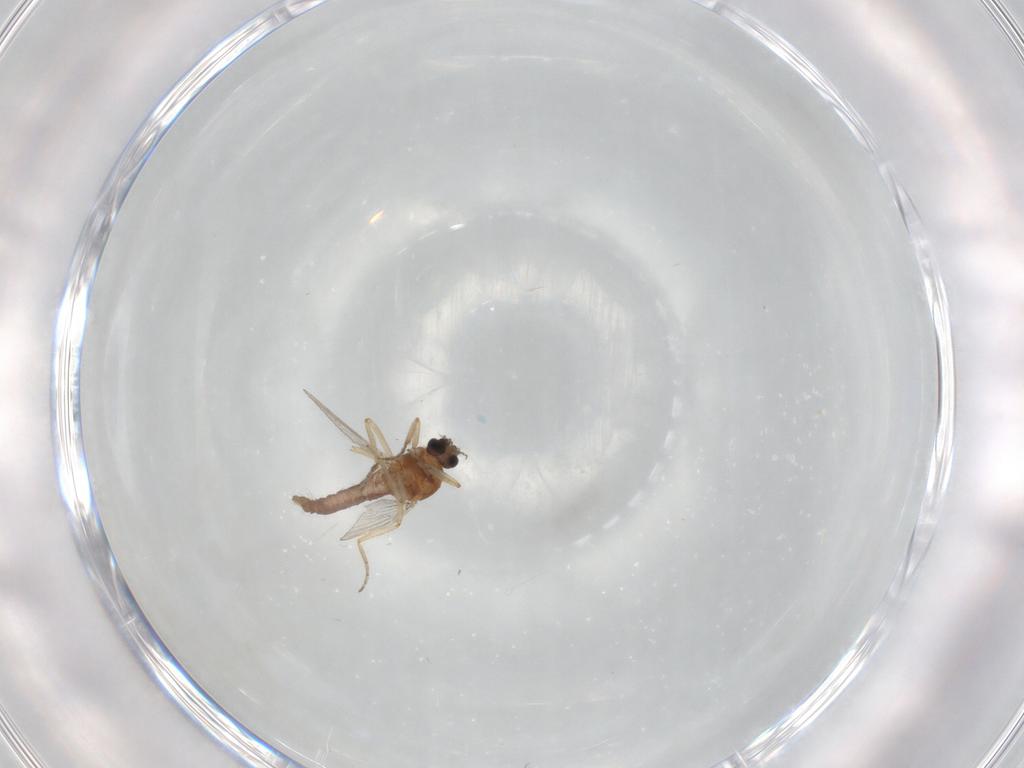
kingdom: Animalia
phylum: Arthropoda
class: Insecta
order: Diptera
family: Ceratopogonidae
